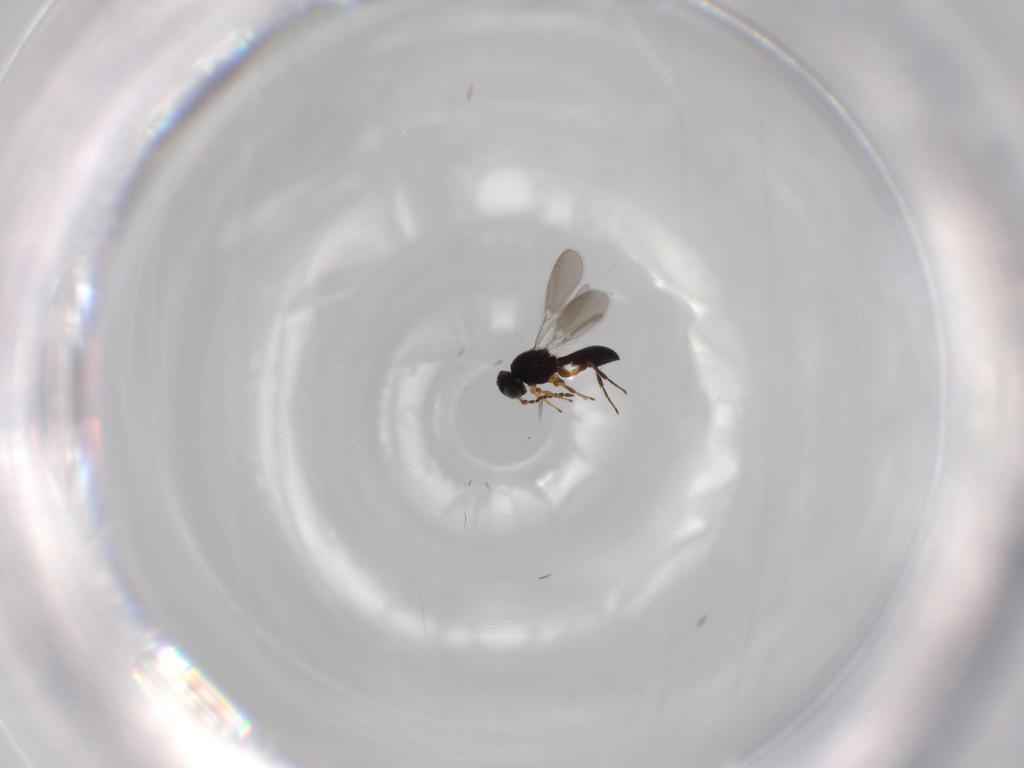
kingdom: Animalia
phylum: Arthropoda
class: Insecta
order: Hymenoptera
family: Platygastridae
